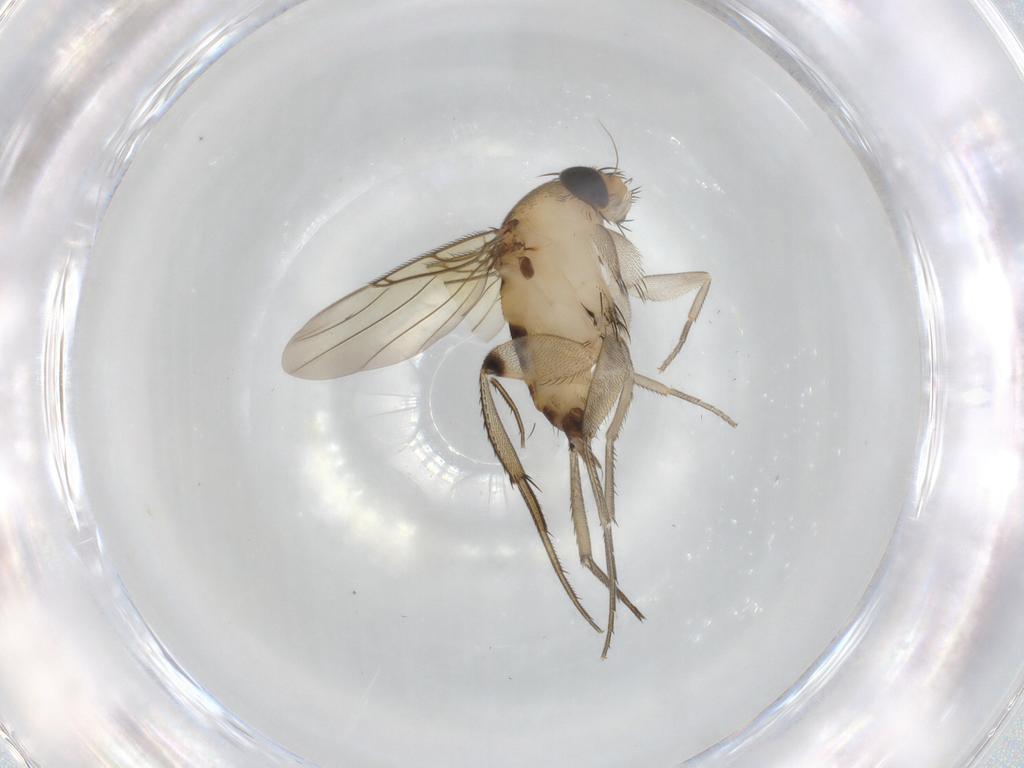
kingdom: Animalia
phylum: Arthropoda
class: Insecta
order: Diptera
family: Phoridae
